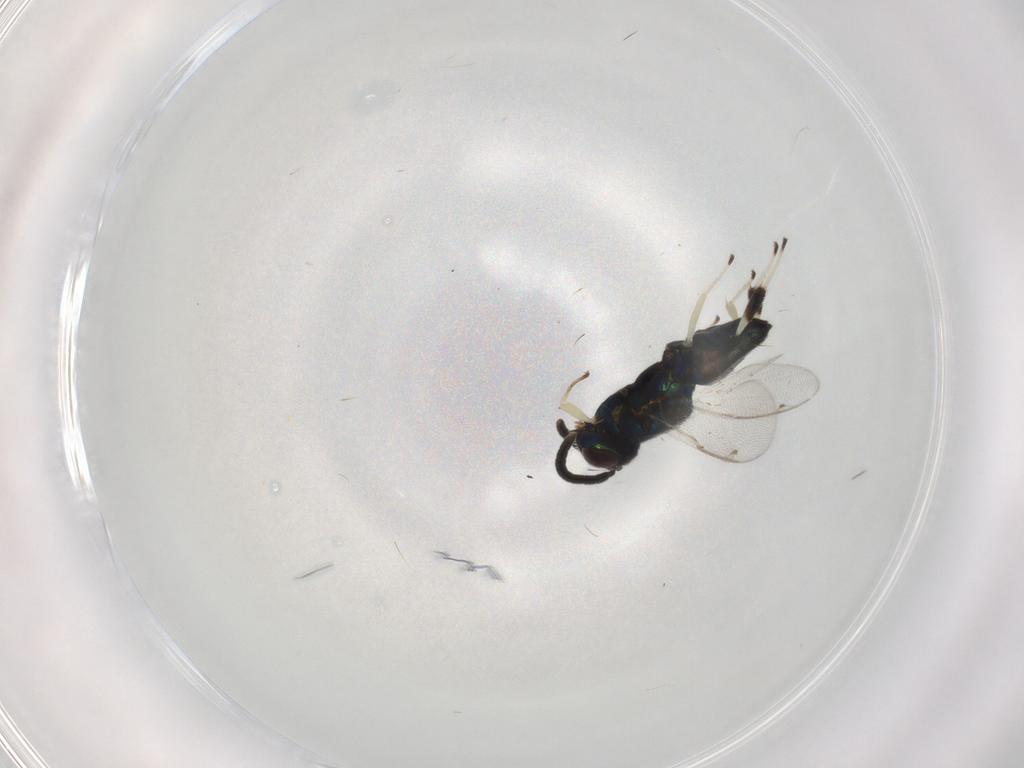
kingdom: Animalia
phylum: Arthropoda
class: Insecta
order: Hymenoptera
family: Eupelmidae
